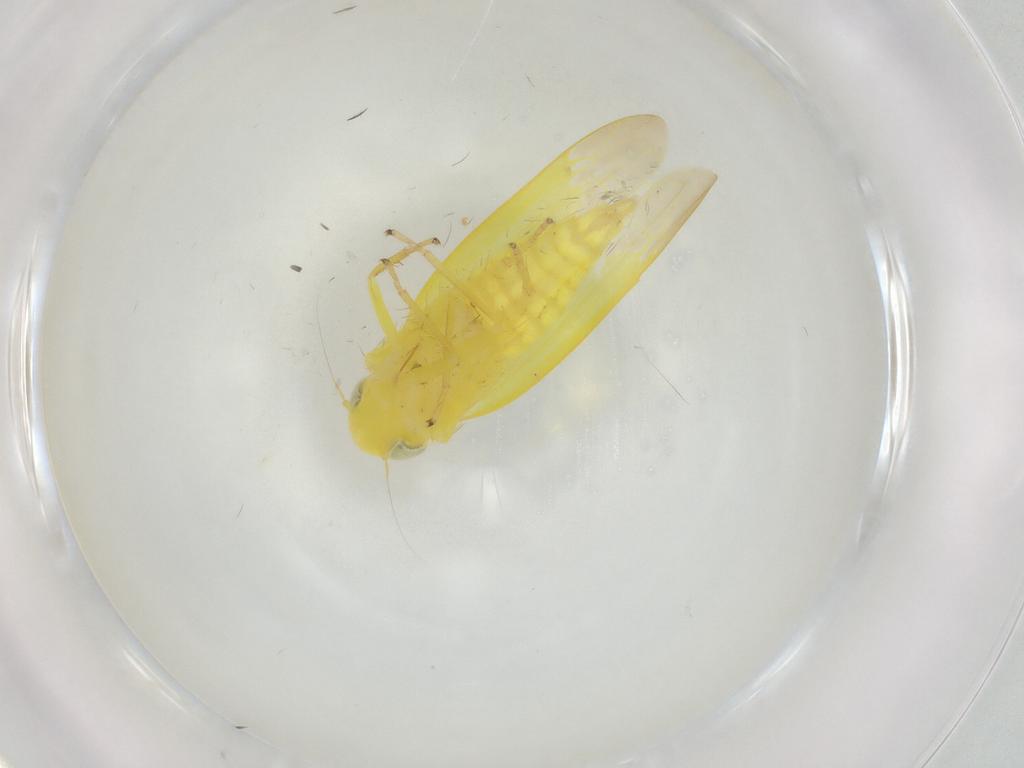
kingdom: Animalia
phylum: Arthropoda
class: Insecta
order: Hemiptera
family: Cicadellidae
